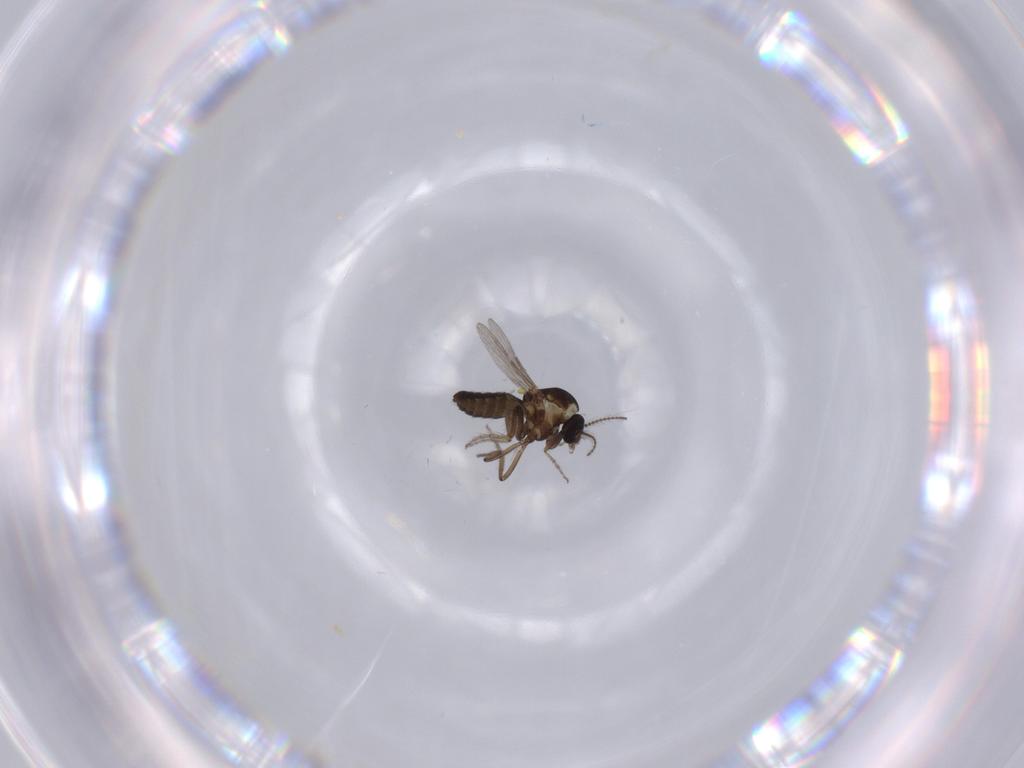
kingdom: Animalia
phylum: Arthropoda
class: Insecta
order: Diptera
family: Ceratopogonidae
